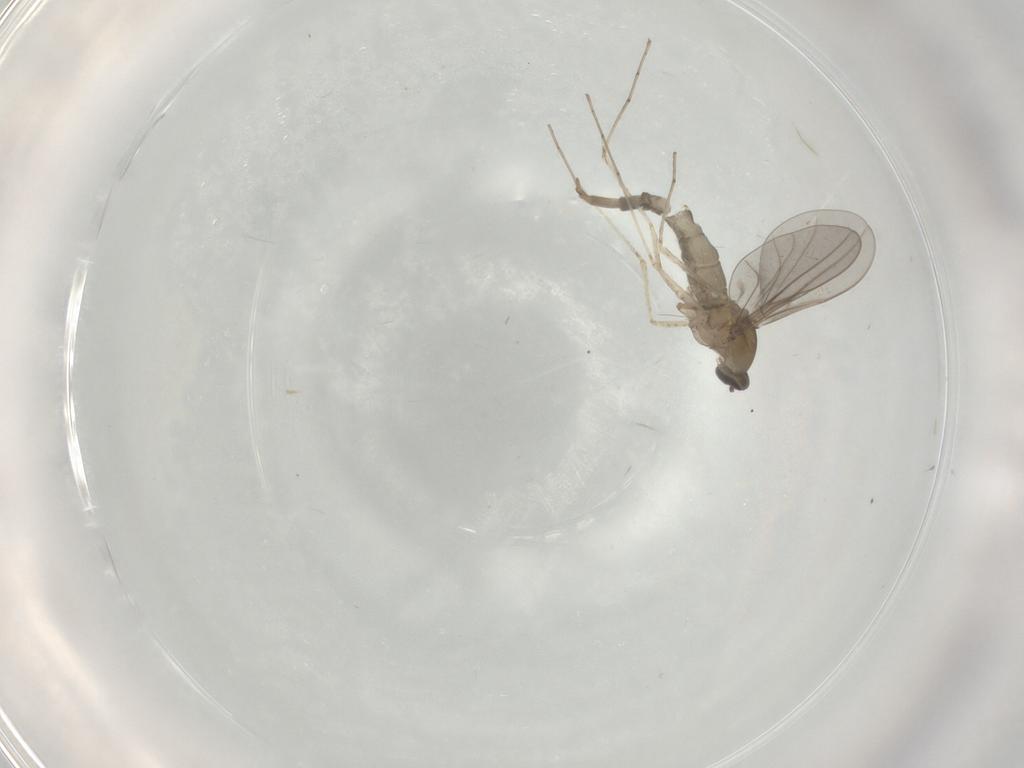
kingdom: Animalia
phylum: Arthropoda
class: Insecta
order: Diptera
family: Cecidomyiidae
